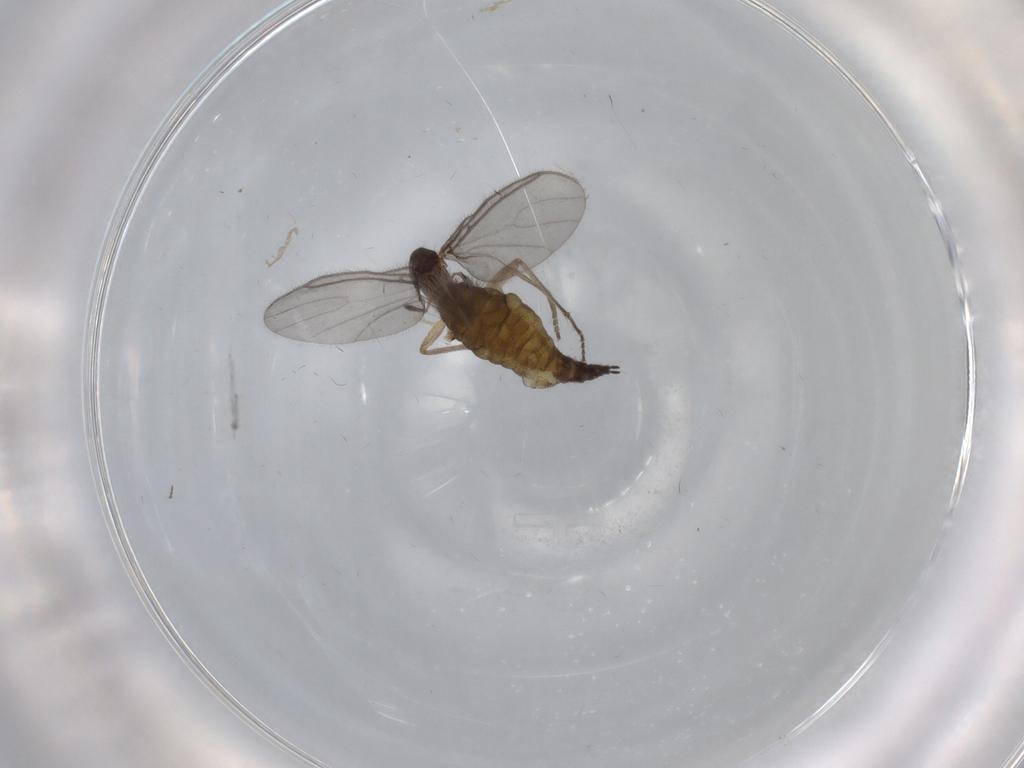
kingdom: Animalia
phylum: Arthropoda
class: Insecta
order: Diptera
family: Sciaridae
